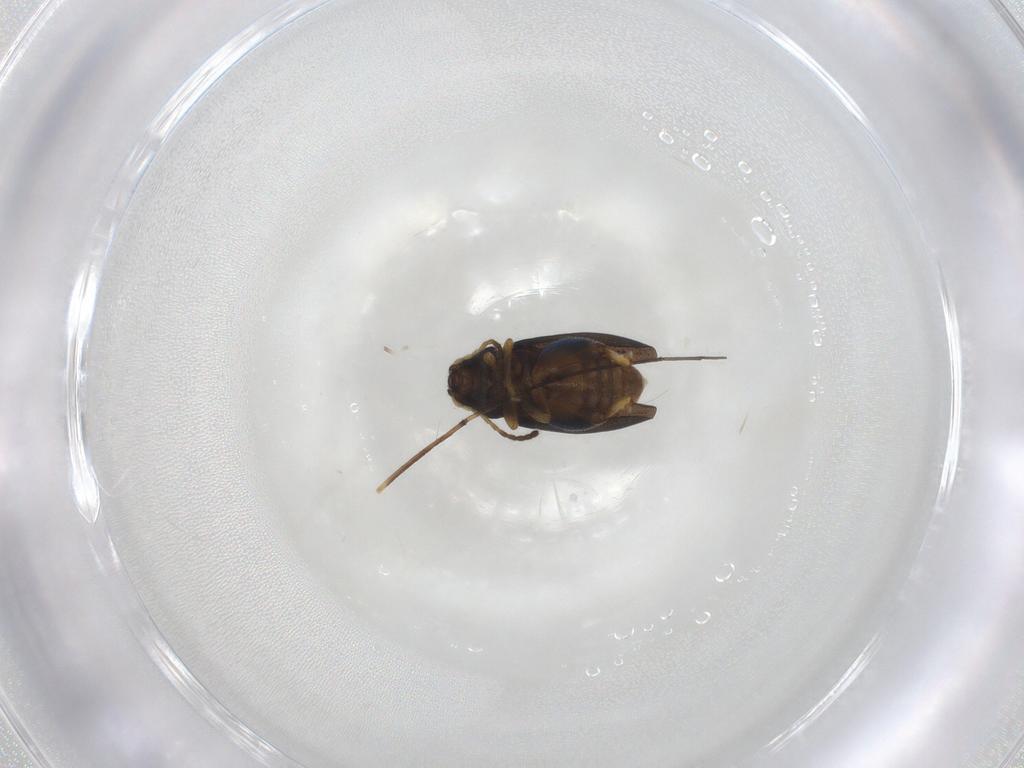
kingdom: Animalia
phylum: Arthropoda
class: Insecta
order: Coleoptera
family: Chrysomelidae
